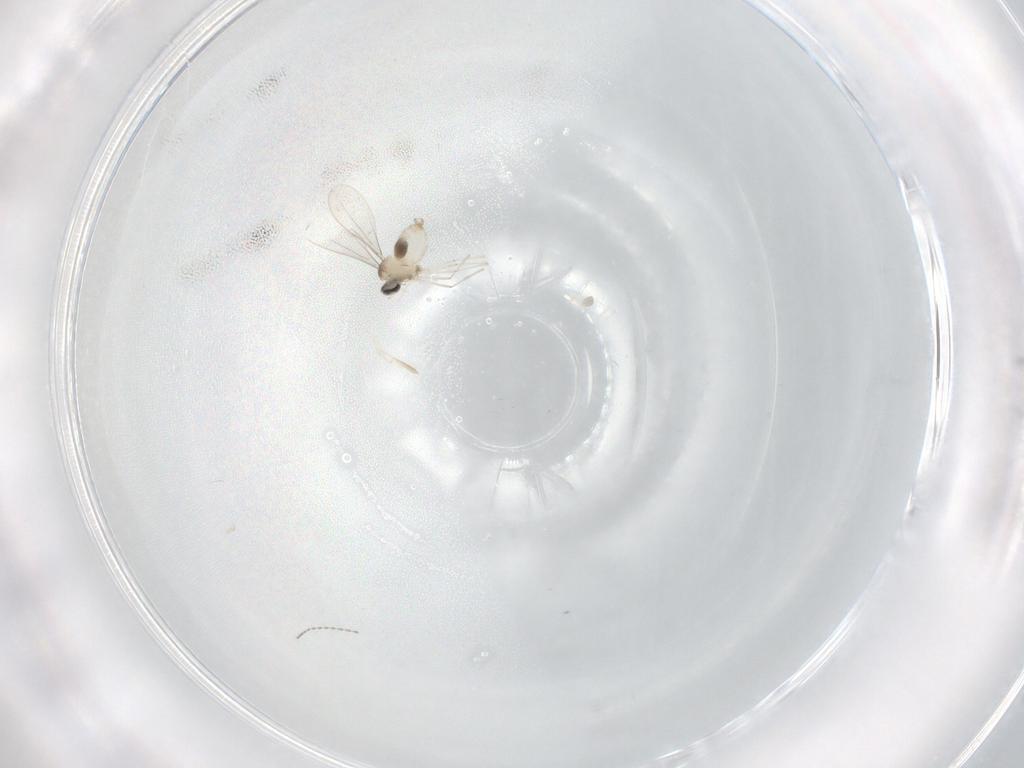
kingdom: Animalia
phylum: Arthropoda
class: Insecta
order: Diptera
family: Cecidomyiidae
